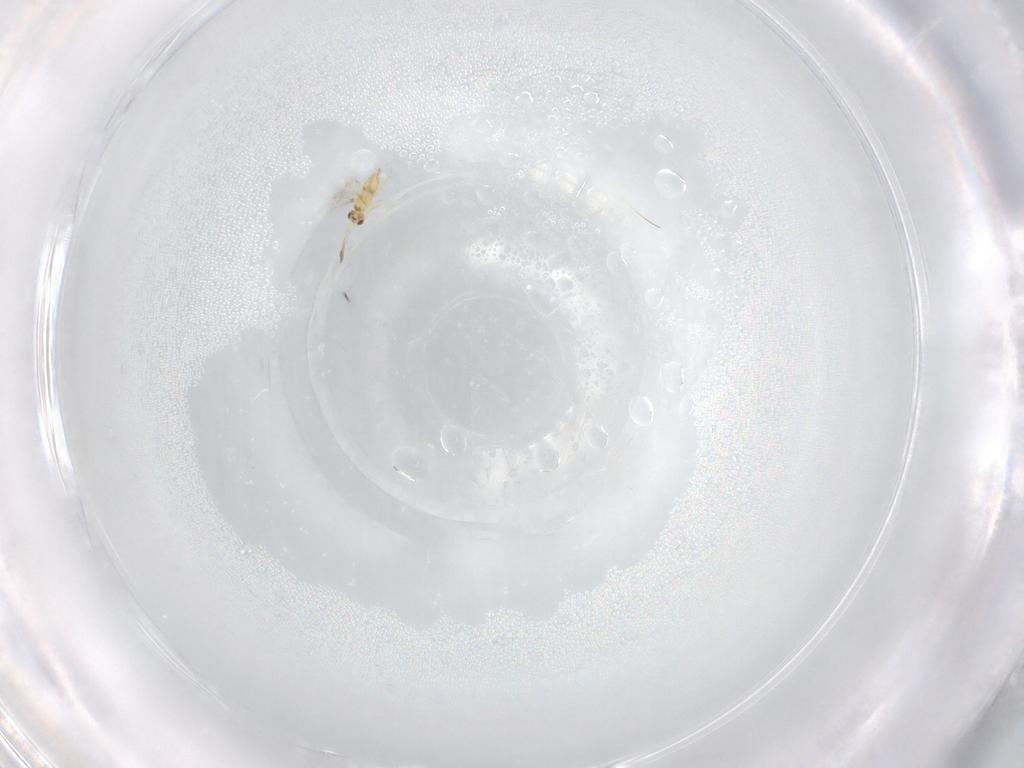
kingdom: Animalia
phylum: Arthropoda
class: Insecta
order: Hymenoptera
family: Mymaridae
